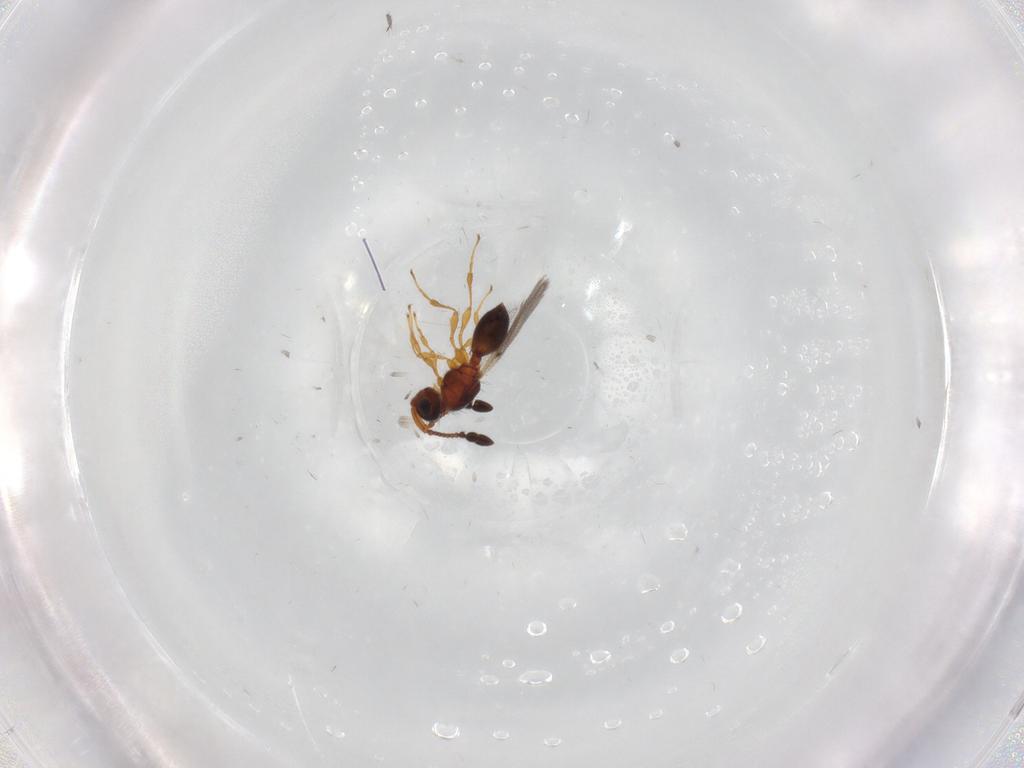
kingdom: Animalia
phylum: Arthropoda
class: Insecta
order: Hymenoptera
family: Diapriidae
